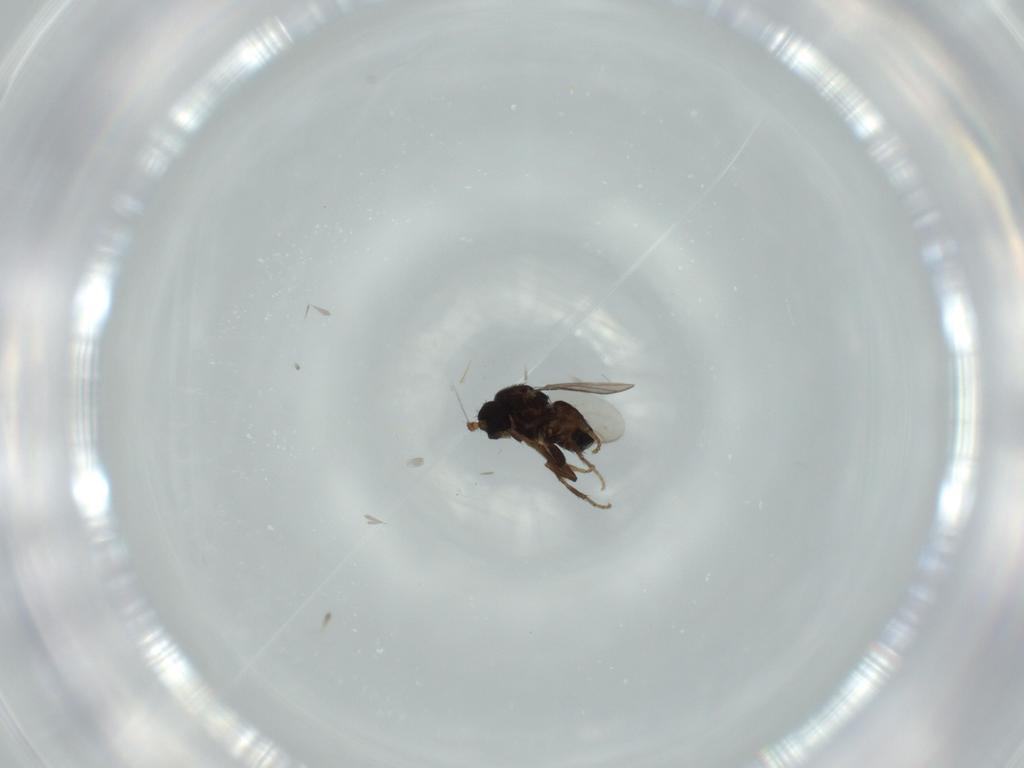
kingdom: Animalia
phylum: Arthropoda
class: Insecta
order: Diptera
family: Sphaeroceridae
